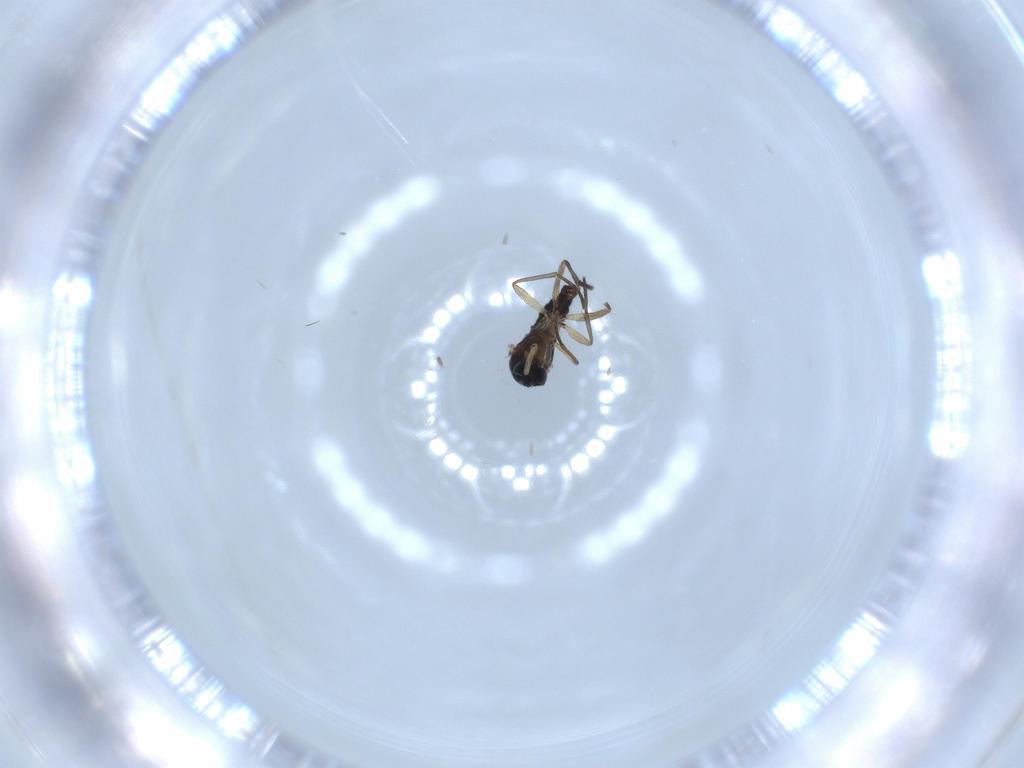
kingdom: Animalia
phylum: Arthropoda
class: Insecta
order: Diptera
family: Sciaridae
